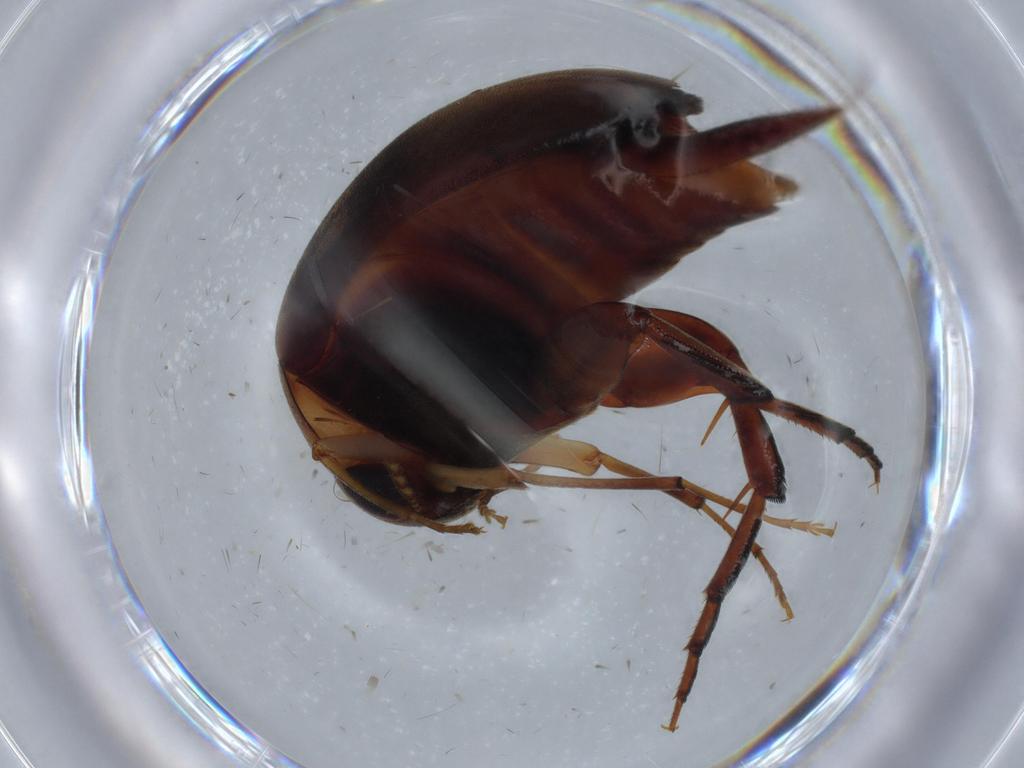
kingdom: Animalia
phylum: Arthropoda
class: Insecta
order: Coleoptera
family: Mordellidae
